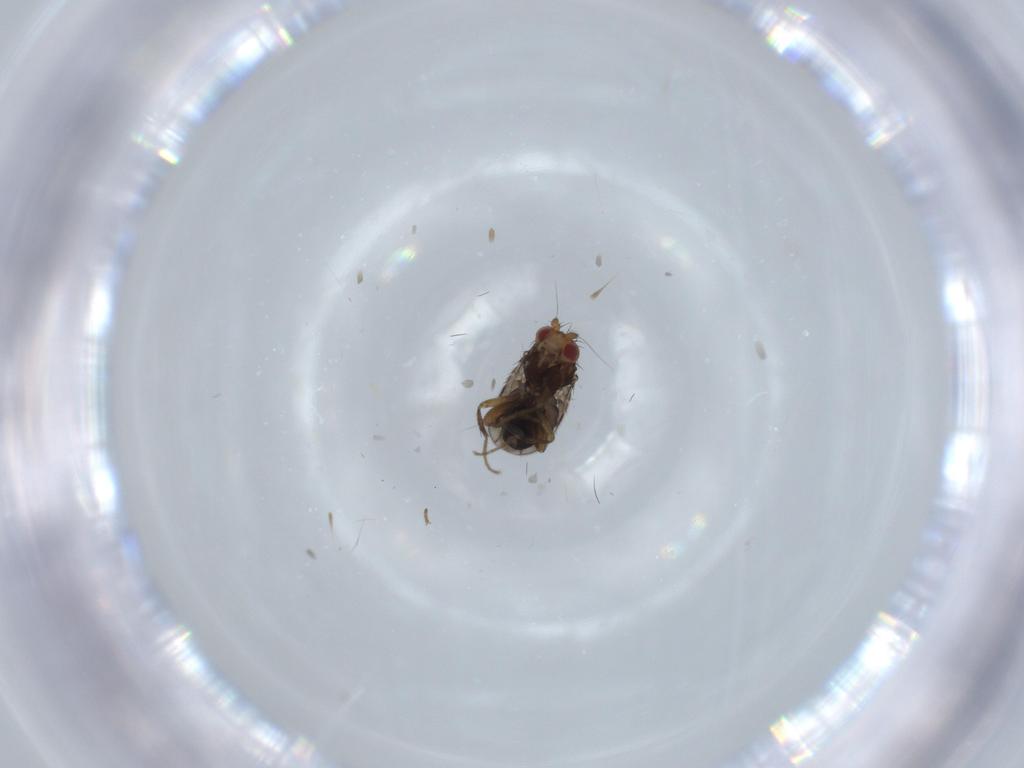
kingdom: Animalia
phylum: Arthropoda
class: Insecta
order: Diptera
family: Sphaeroceridae
